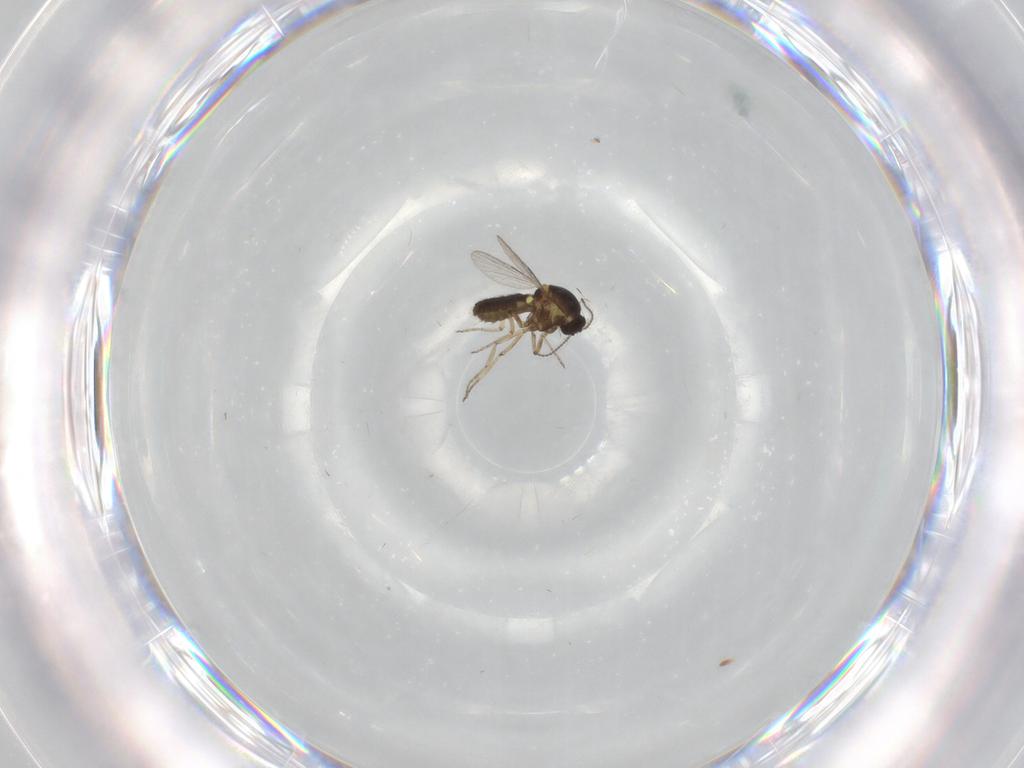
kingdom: Animalia
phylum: Arthropoda
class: Insecta
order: Diptera
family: Ceratopogonidae
